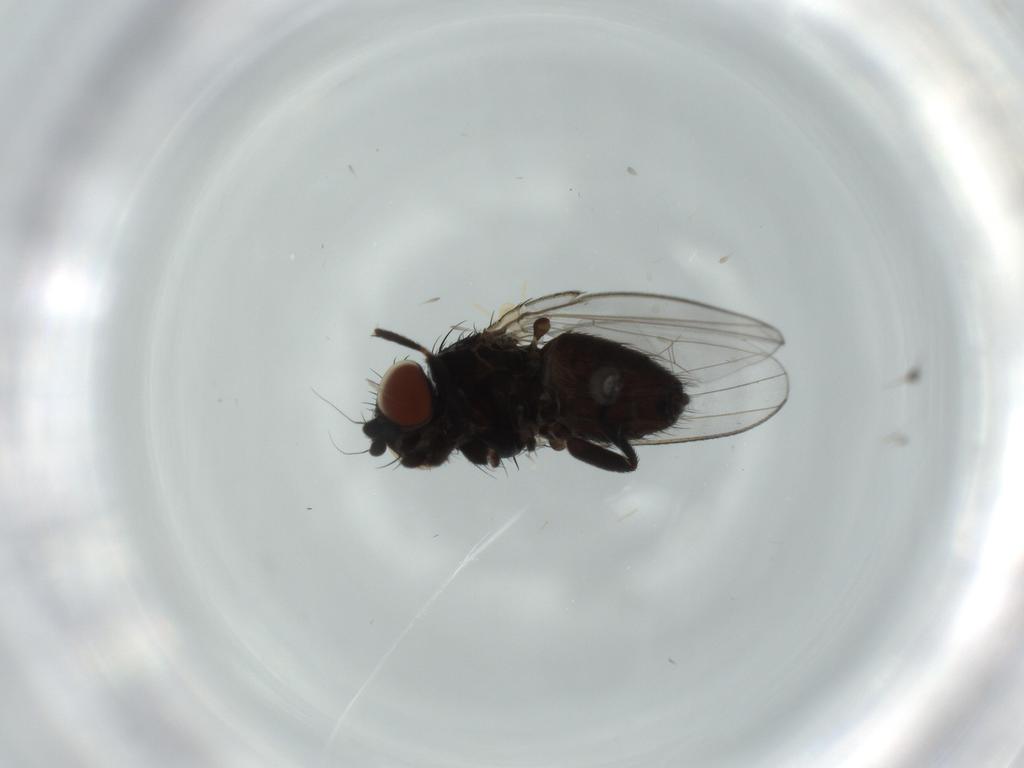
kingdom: Animalia
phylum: Arthropoda
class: Insecta
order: Diptera
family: Milichiidae
